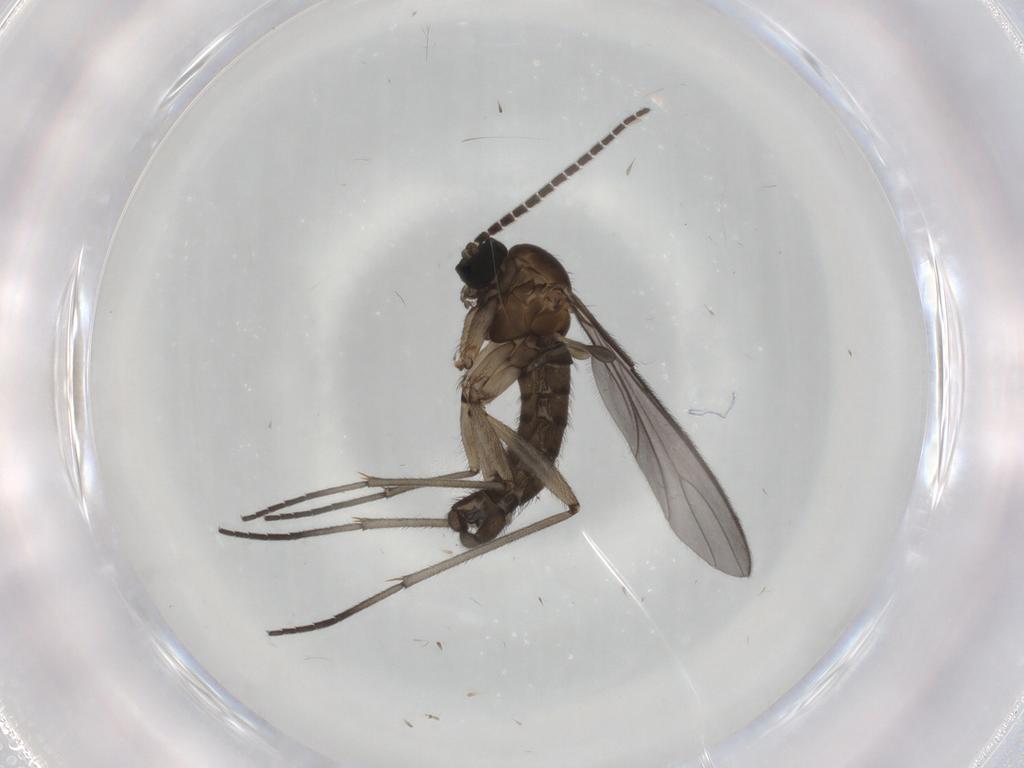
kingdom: Animalia
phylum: Arthropoda
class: Insecta
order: Diptera
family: Sciaridae
